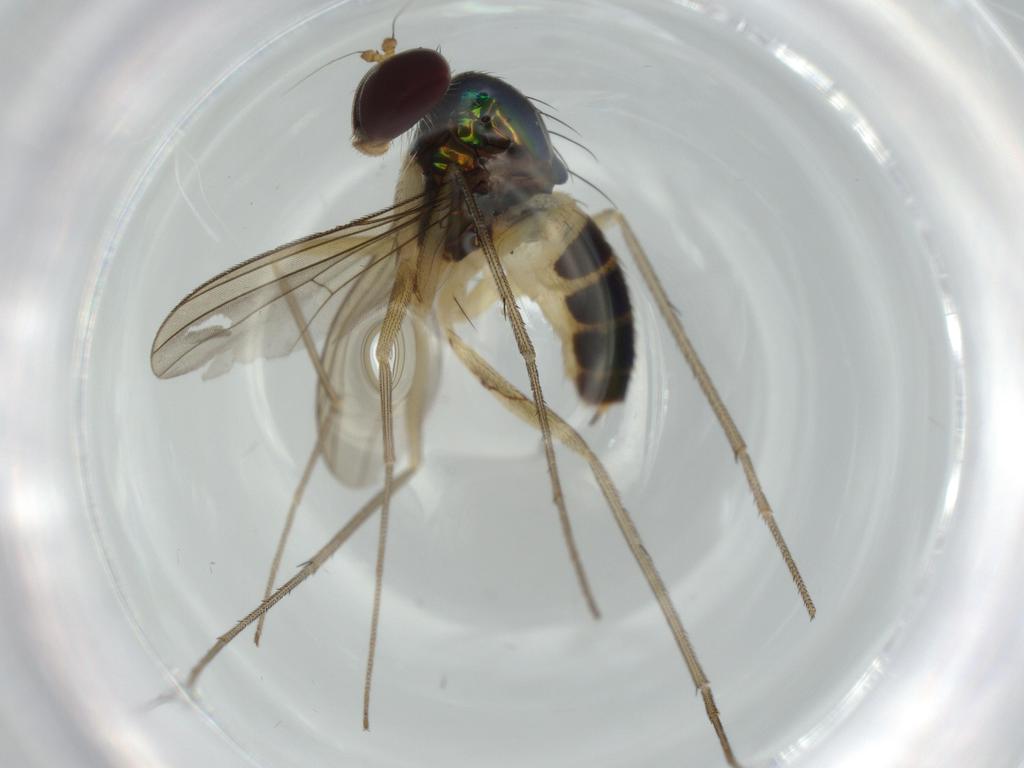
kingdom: Animalia
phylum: Arthropoda
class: Insecta
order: Diptera
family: Dolichopodidae
